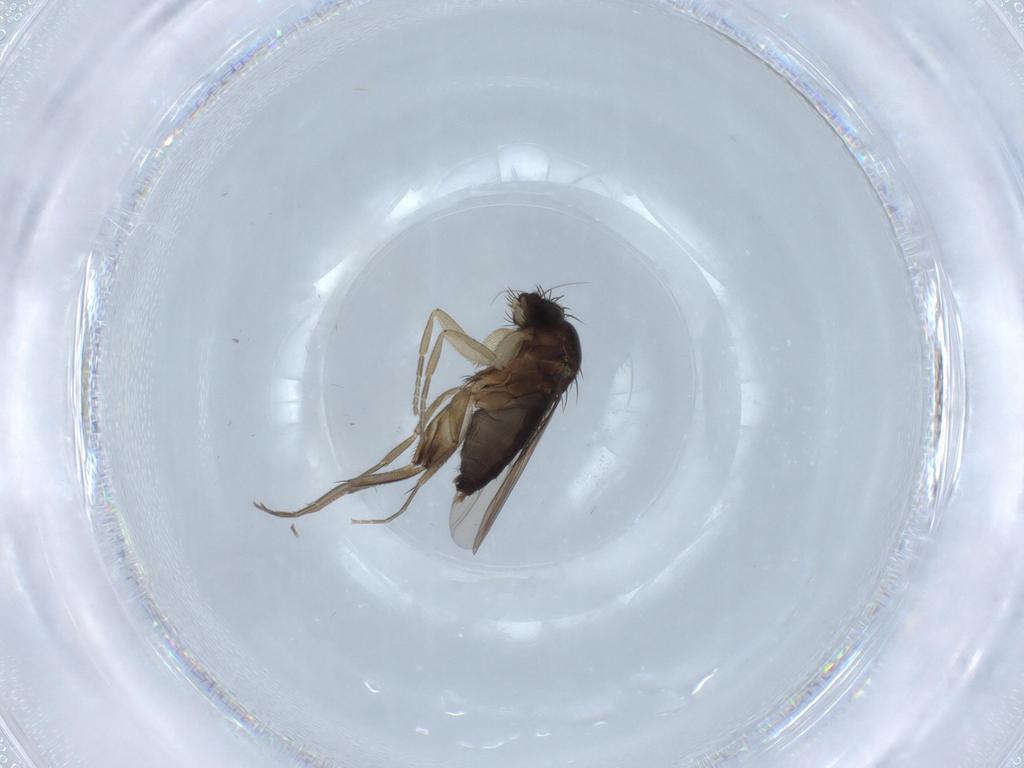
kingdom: Animalia
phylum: Arthropoda
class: Insecta
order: Diptera
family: Phoridae
